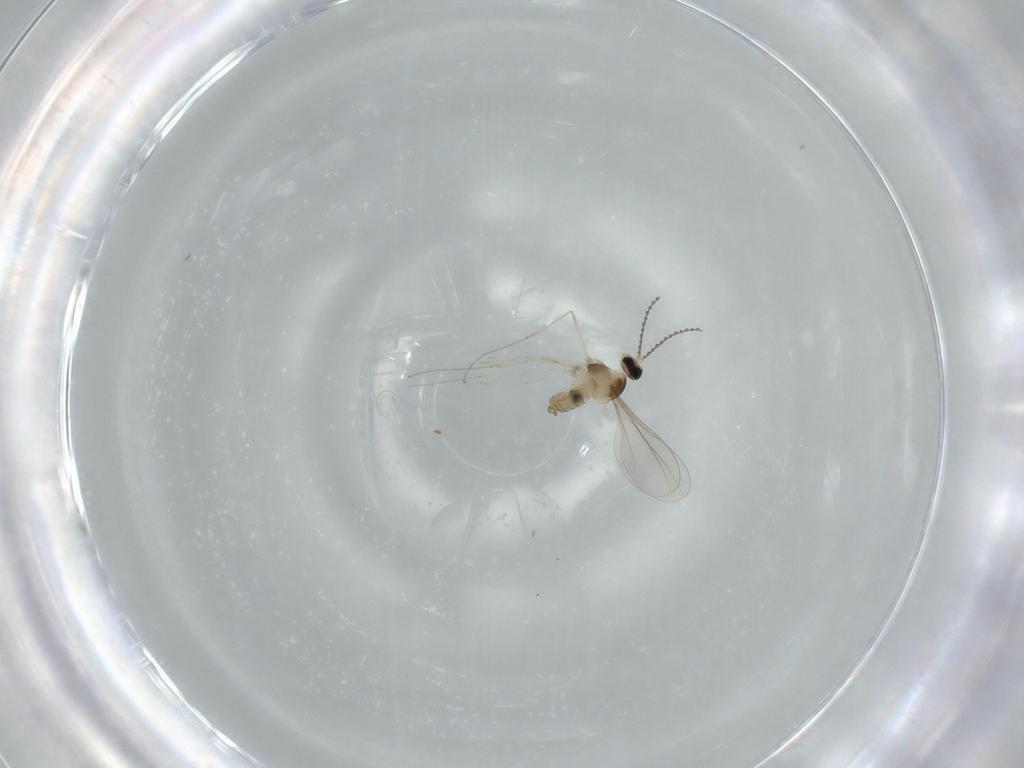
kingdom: Animalia
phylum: Arthropoda
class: Insecta
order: Diptera
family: Cecidomyiidae
